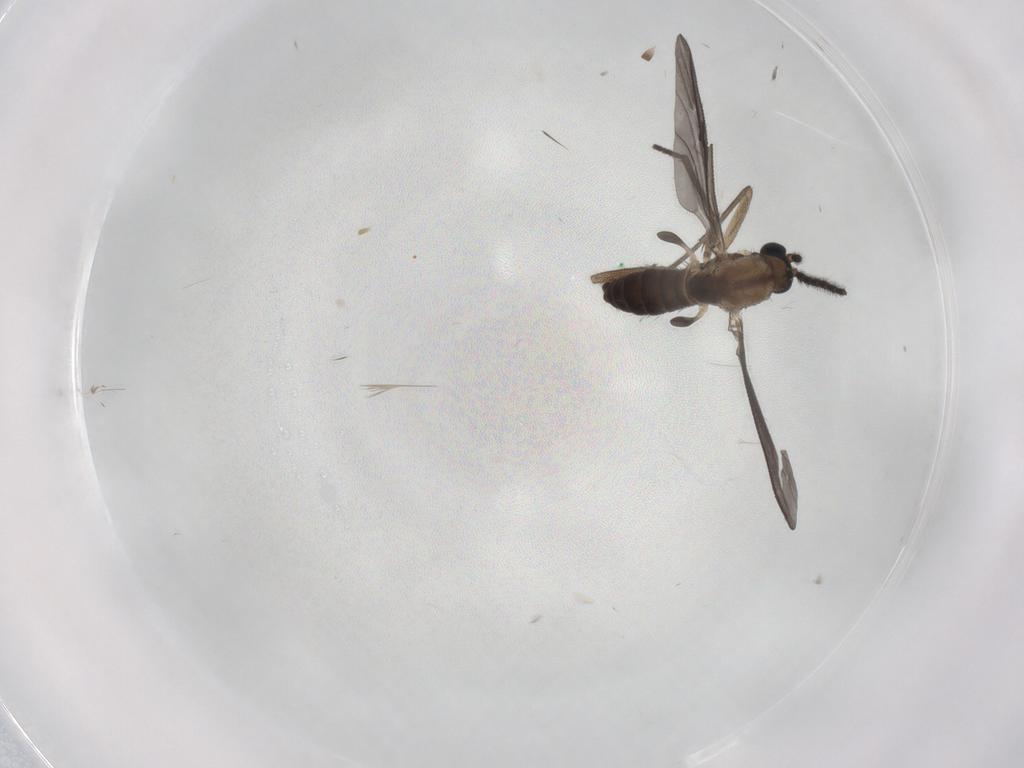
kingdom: Animalia
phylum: Arthropoda
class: Insecta
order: Diptera
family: Sciaridae
